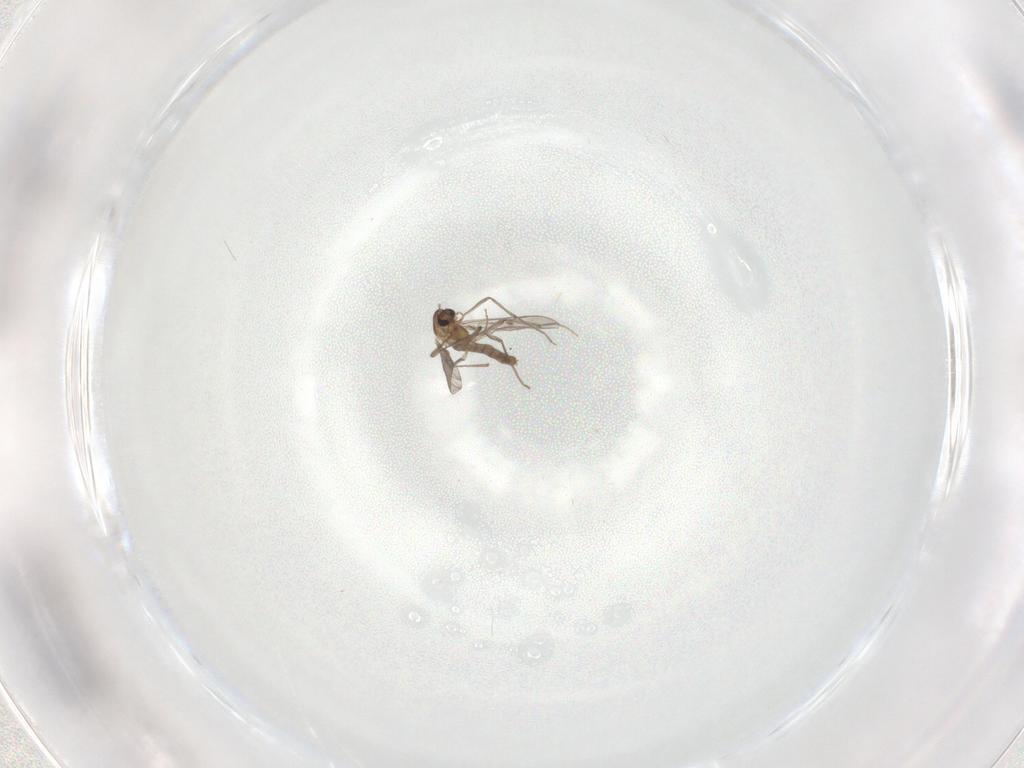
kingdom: Animalia
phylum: Arthropoda
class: Insecta
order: Diptera
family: Chironomidae
